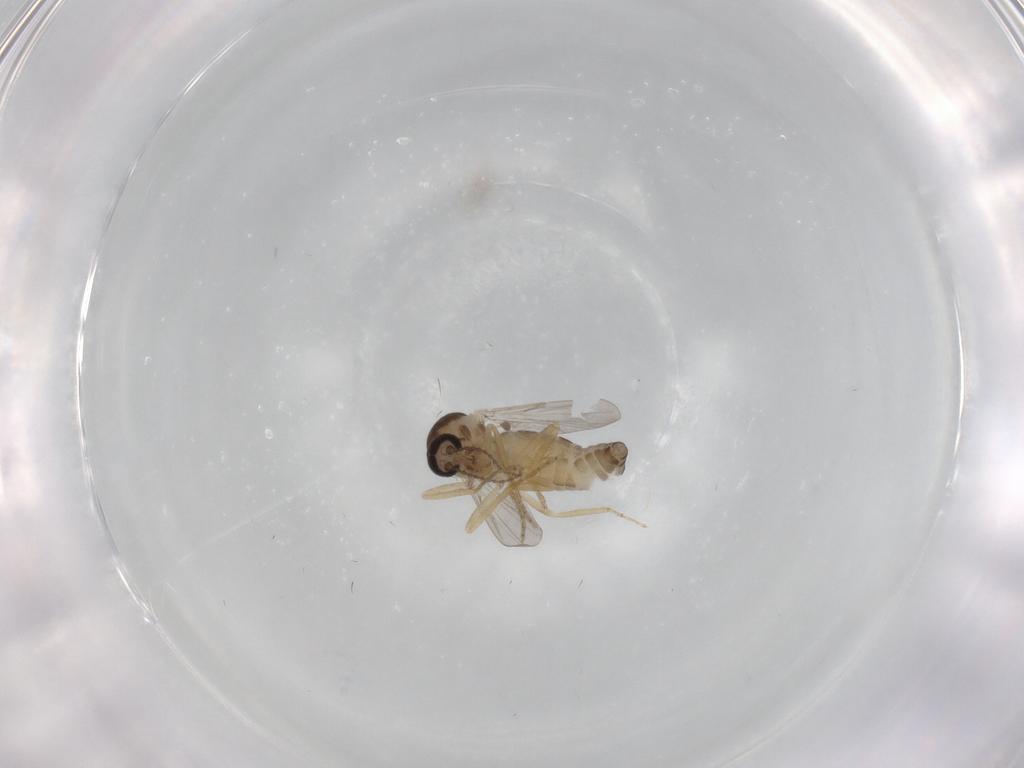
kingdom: Animalia
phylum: Arthropoda
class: Insecta
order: Diptera
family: Ceratopogonidae
